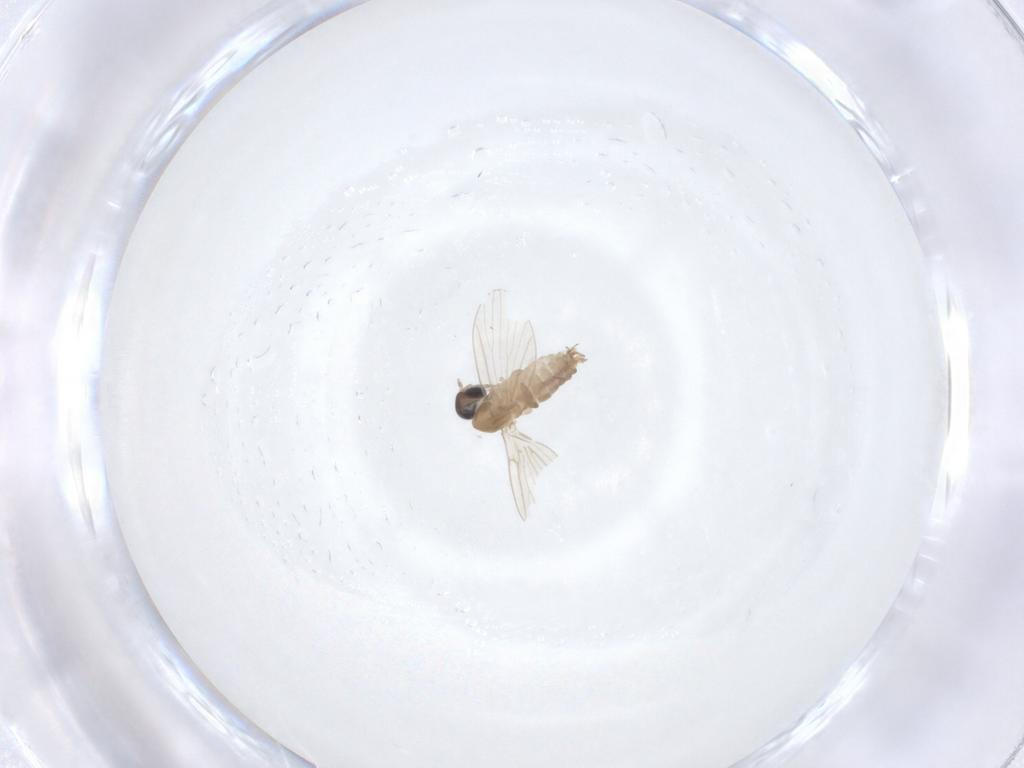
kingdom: Animalia
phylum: Arthropoda
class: Insecta
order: Diptera
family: Psychodidae
